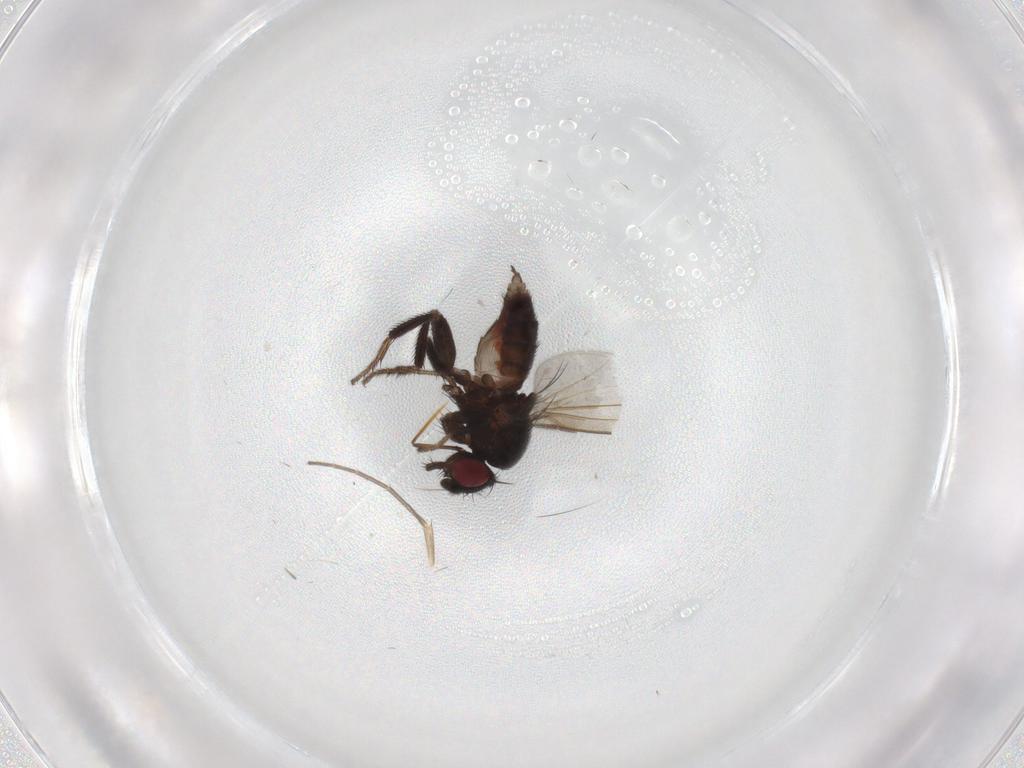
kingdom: Animalia
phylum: Arthropoda
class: Insecta
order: Diptera
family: Milichiidae
